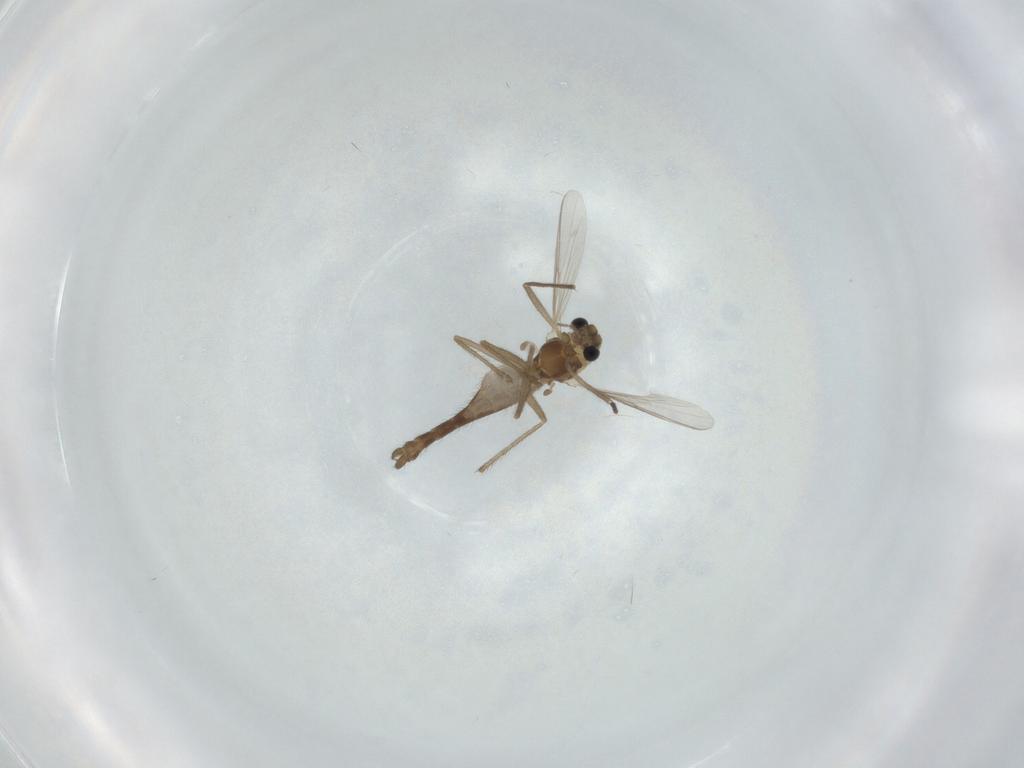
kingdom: Animalia
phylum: Arthropoda
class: Insecta
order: Diptera
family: Chironomidae
